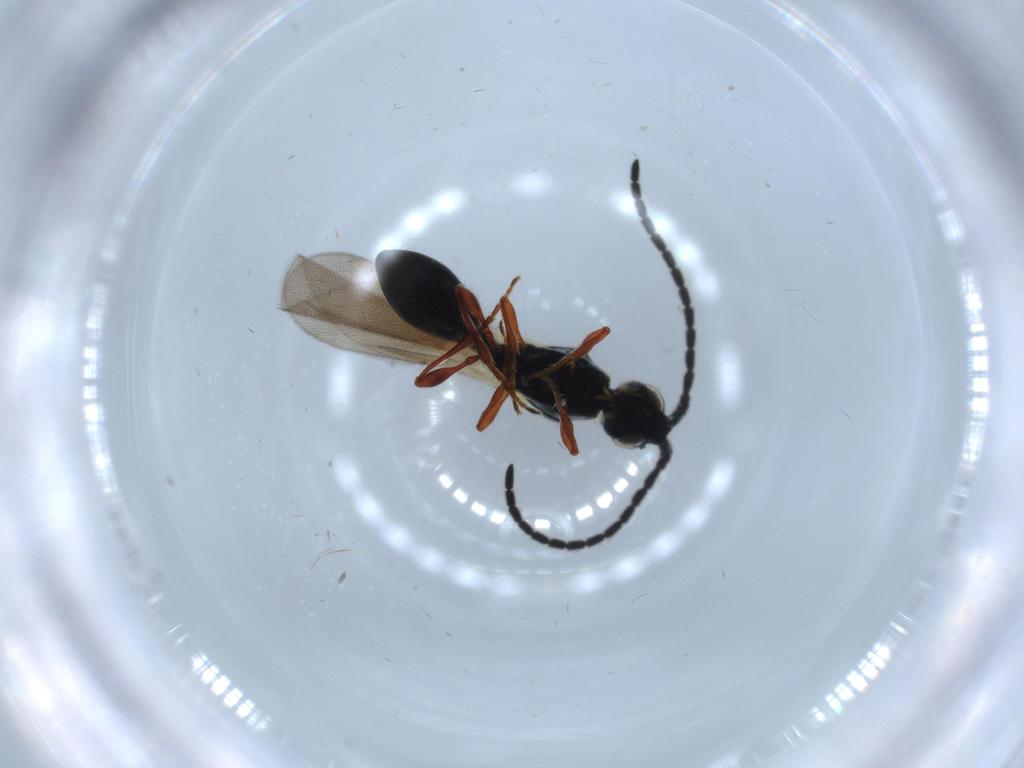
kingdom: Animalia
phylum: Arthropoda
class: Insecta
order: Hymenoptera
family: Diapriidae
